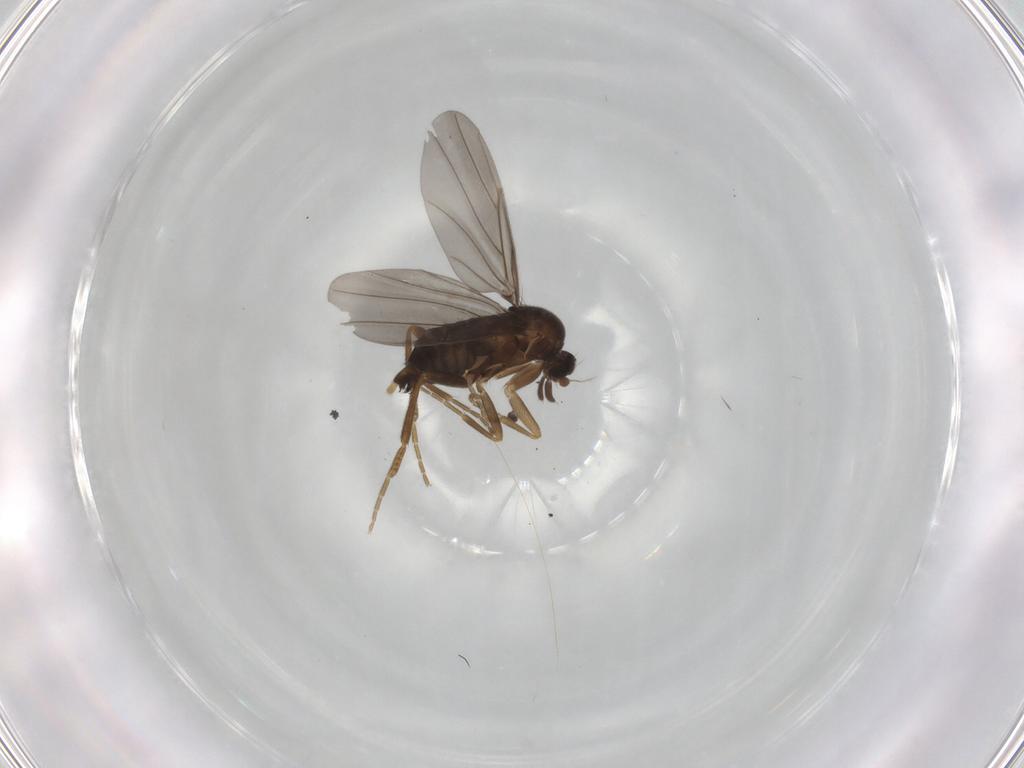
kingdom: Animalia
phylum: Arthropoda
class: Insecta
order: Diptera
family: Phoridae
